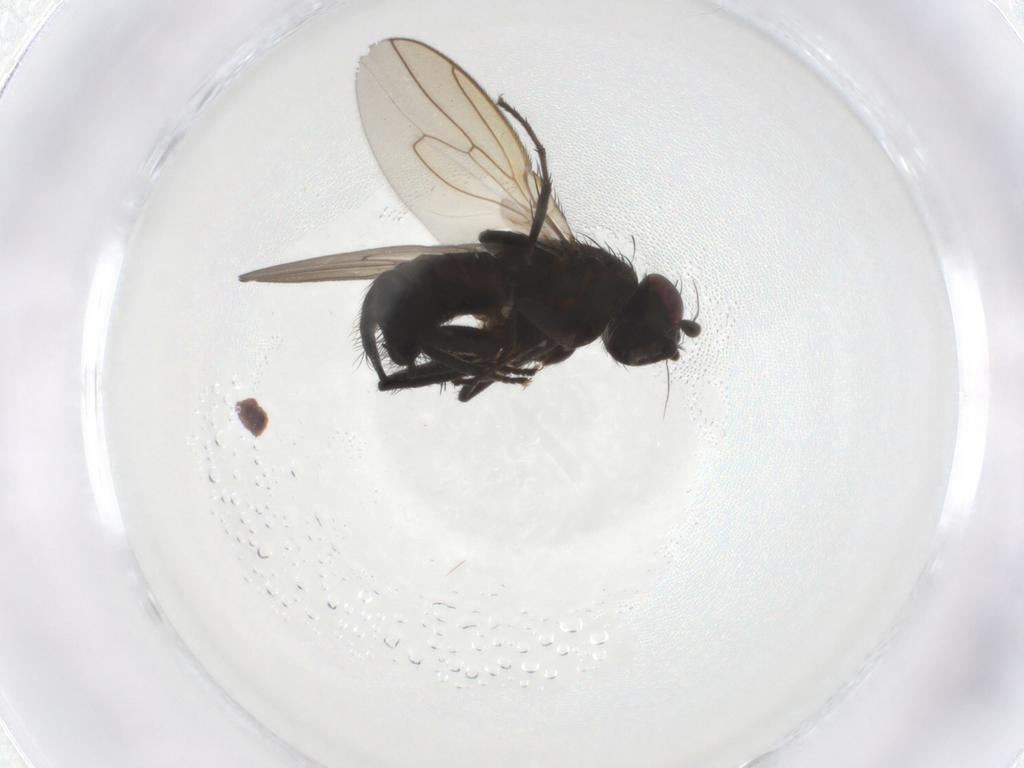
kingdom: Animalia
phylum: Arthropoda
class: Insecta
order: Diptera
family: Sphaeroceridae
